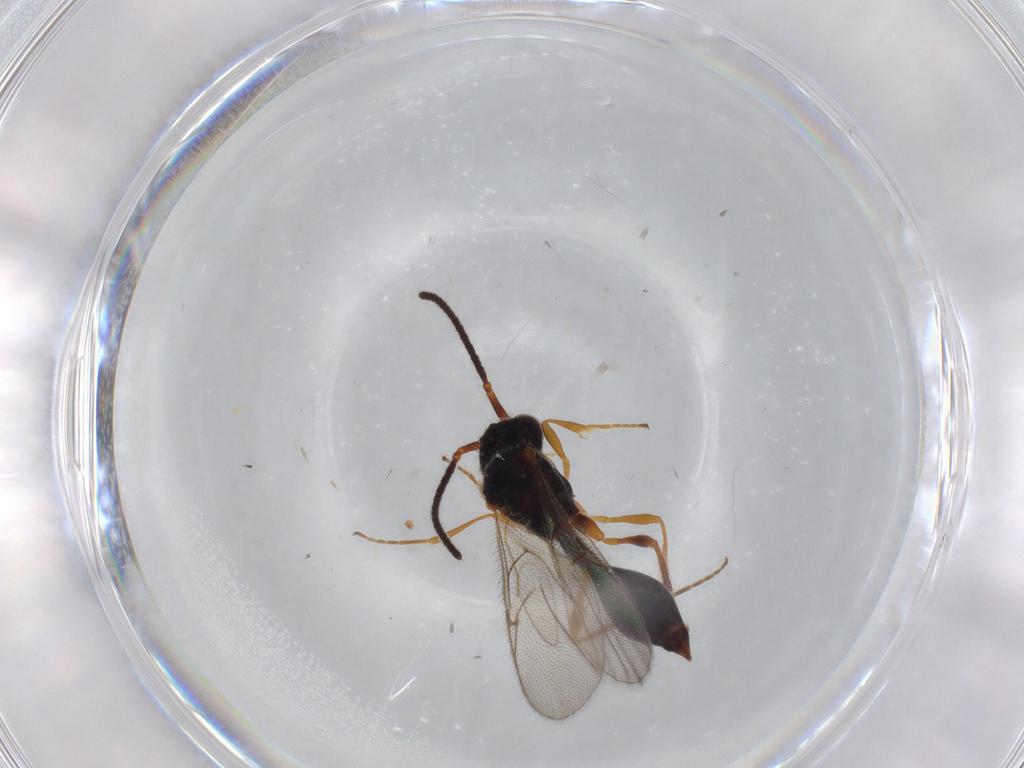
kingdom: Animalia
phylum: Arthropoda
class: Insecta
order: Hymenoptera
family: Diapriidae
